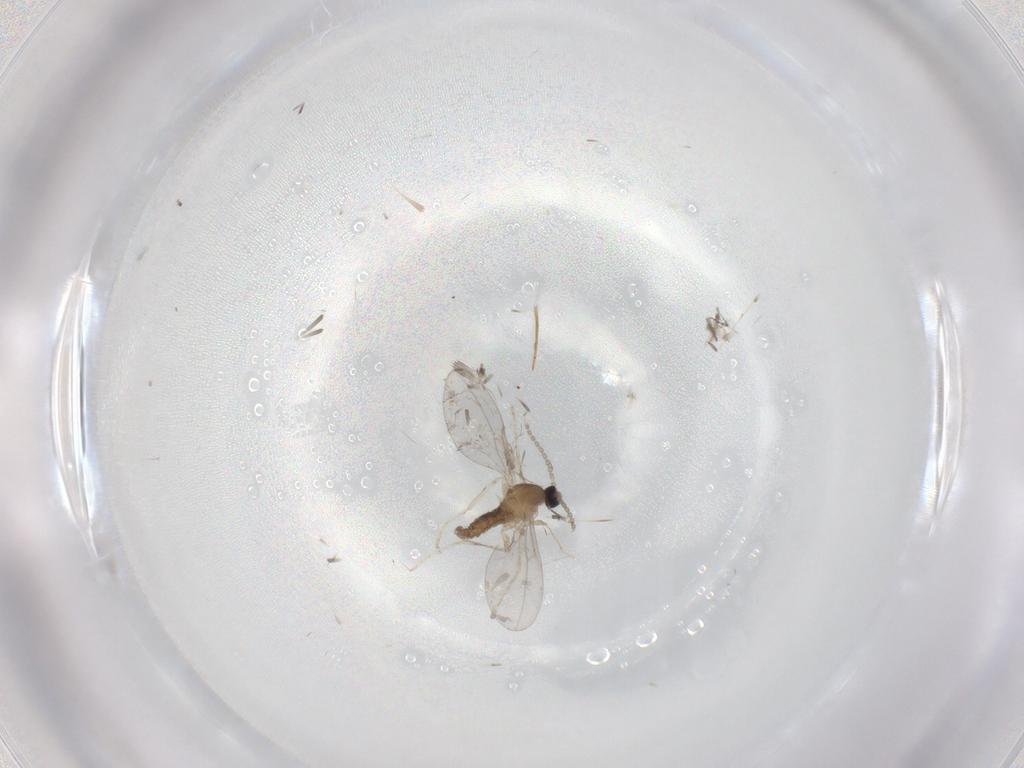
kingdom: Animalia
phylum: Arthropoda
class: Insecta
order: Diptera
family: Cecidomyiidae
